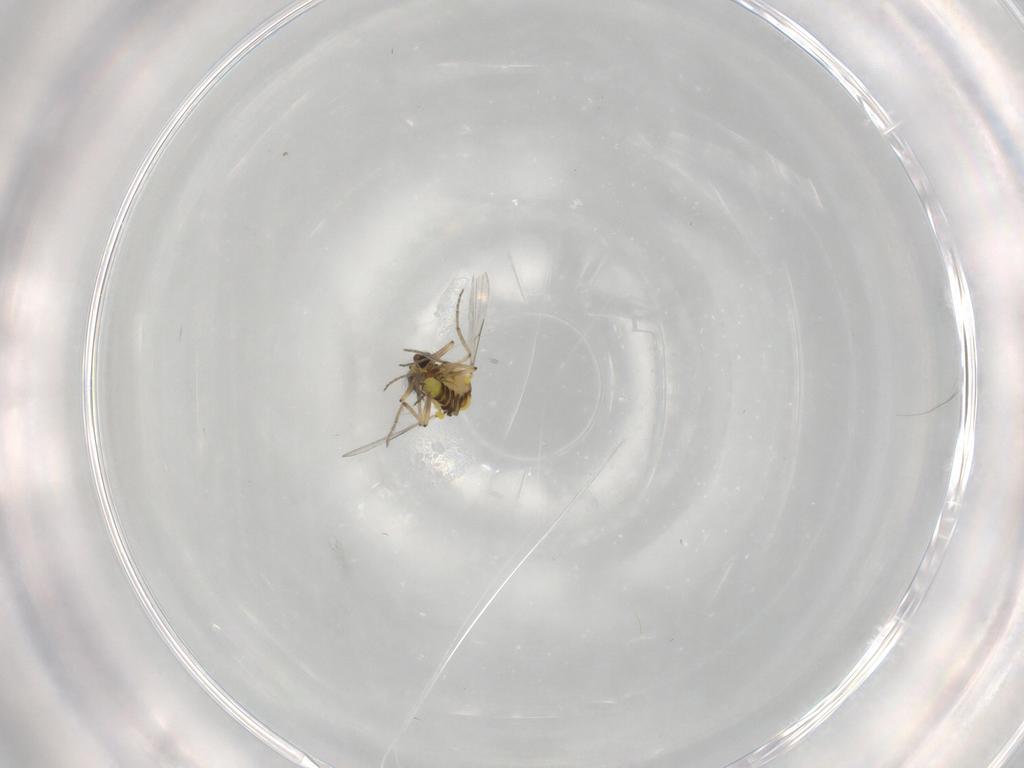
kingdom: Animalia
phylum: Arthropoda
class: Insecta
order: Diptera
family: Ceratopogonidae
